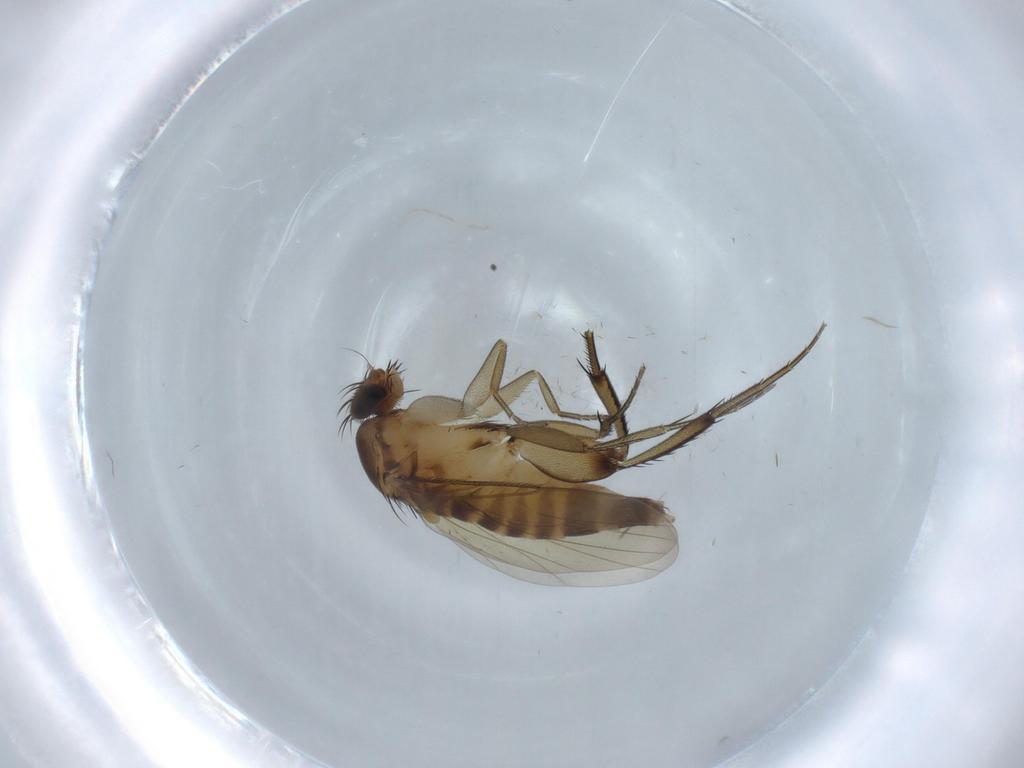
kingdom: Animalia
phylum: Arthropoda
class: Insecta
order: Diptera
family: Phoridae
